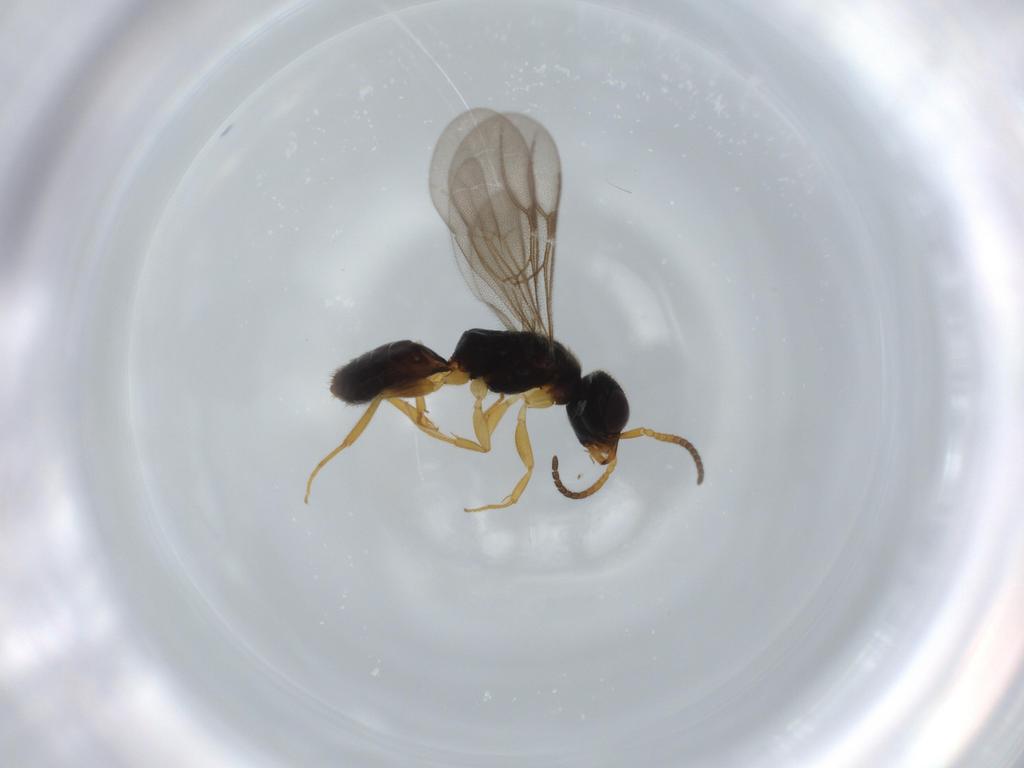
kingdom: Animalia
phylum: Arthropoda
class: Insecta
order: Hymenoptera
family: Bethylidae
